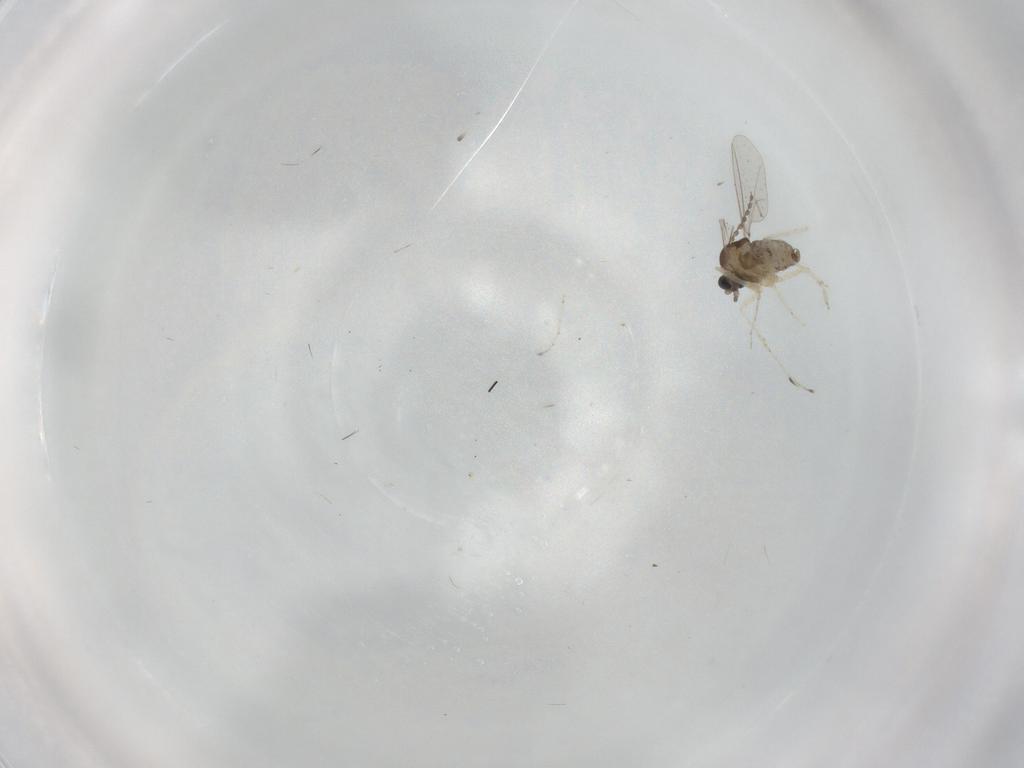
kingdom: Animalia
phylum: Arthropoda
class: Insecta
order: Diptera
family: Cecidomyiidae
